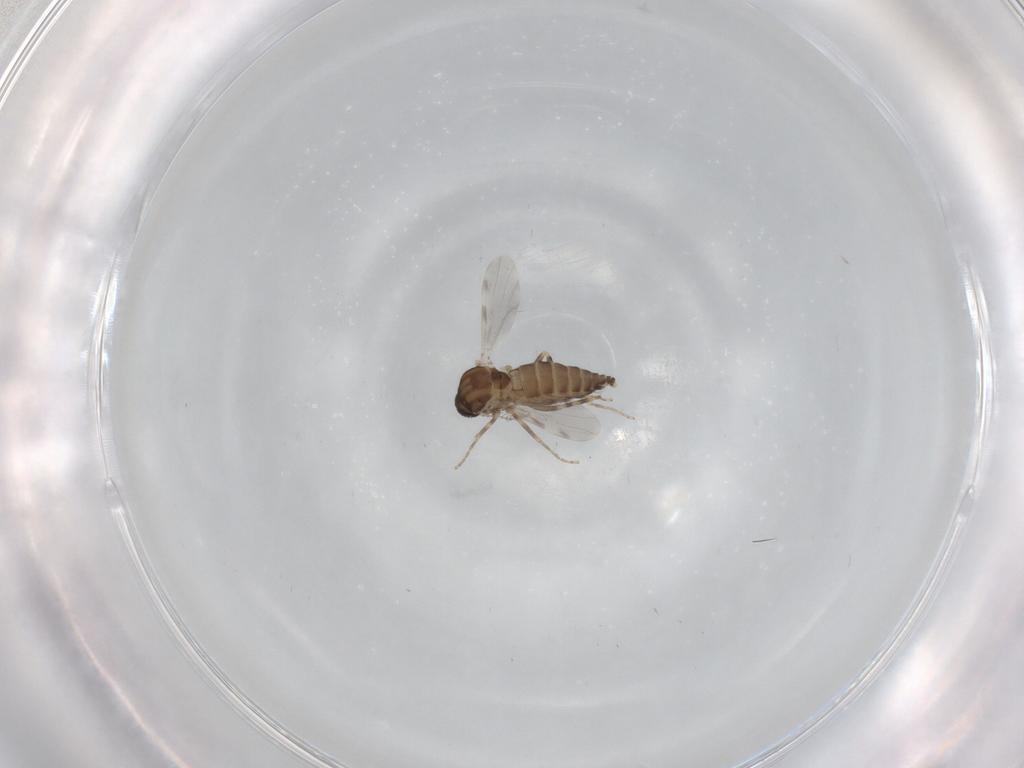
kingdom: Animalia
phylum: Arthropoda
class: Insecta
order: Diptera
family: Ceratopogonidae
